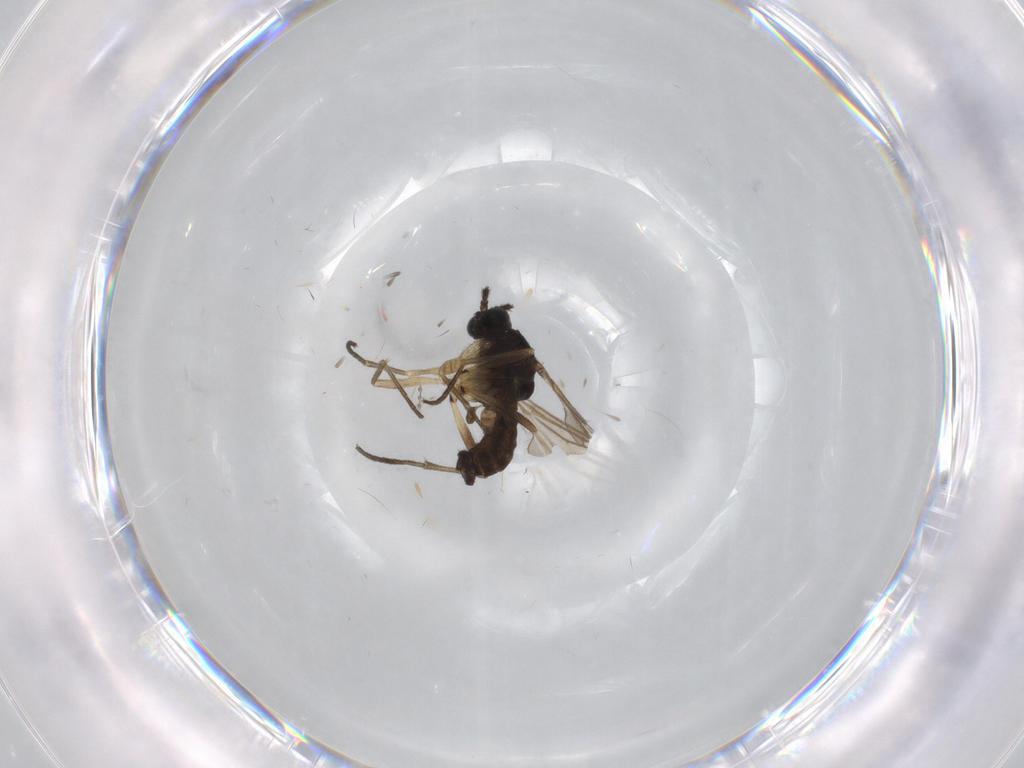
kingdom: Animalia
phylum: Arthropoda
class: Insecta
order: Diptera
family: Sciaridae
